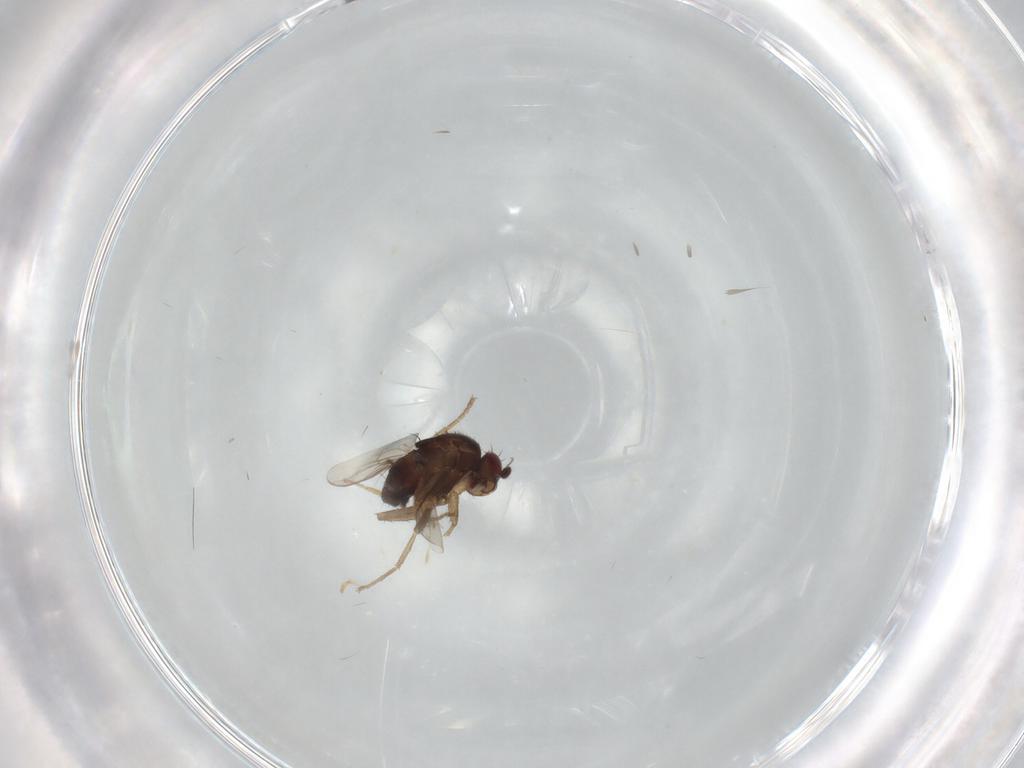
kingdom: Animalia
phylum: Arthropoda
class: Insecta
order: Diptera
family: Sphaeroceridae
